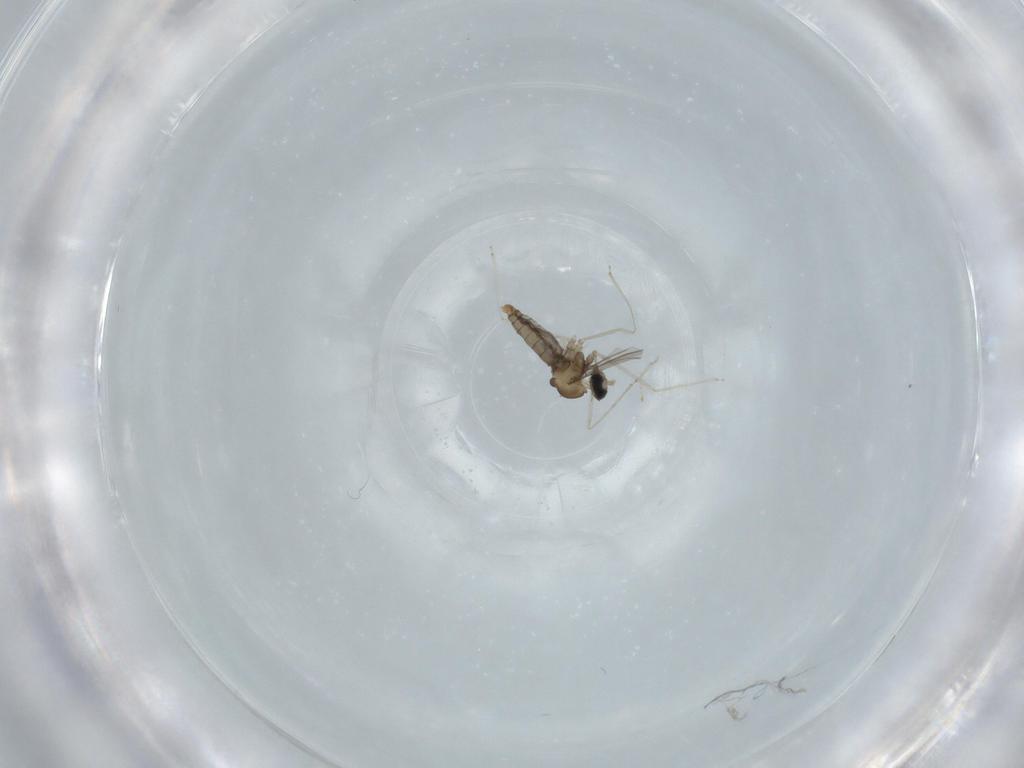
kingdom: Animalia
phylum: Arthropoda
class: Insecta
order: Diptera
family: Cecidomyiidae
